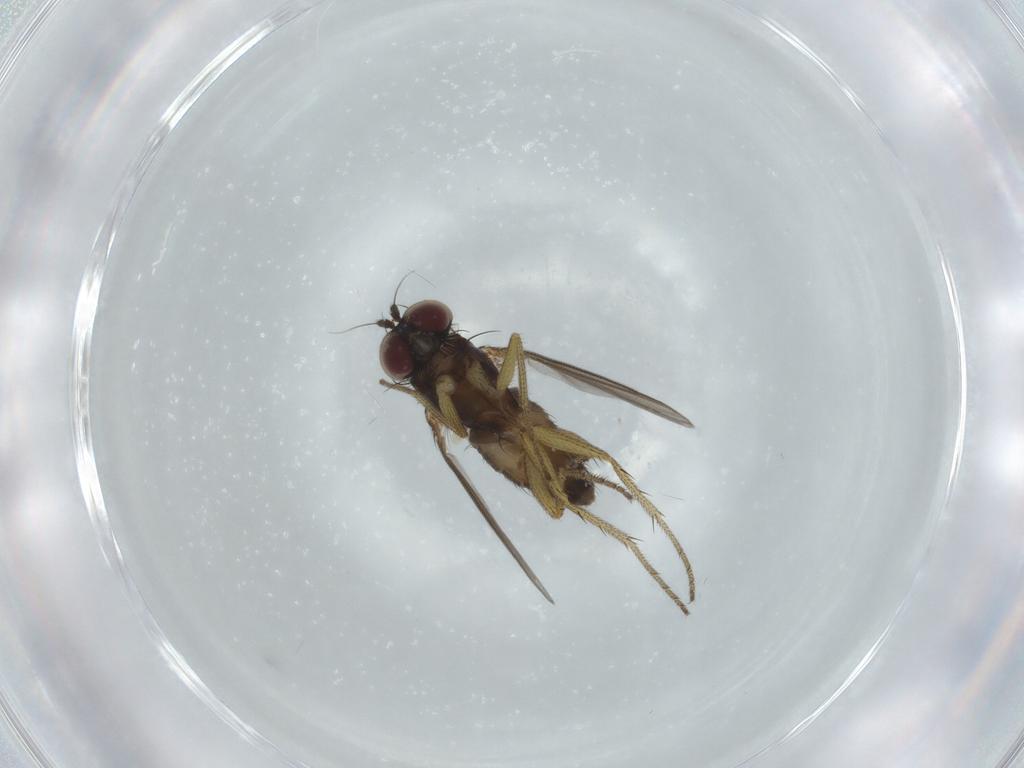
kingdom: Animalia
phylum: Arthropoda
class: Insecta
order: Diptera
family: Dolichopodidae
